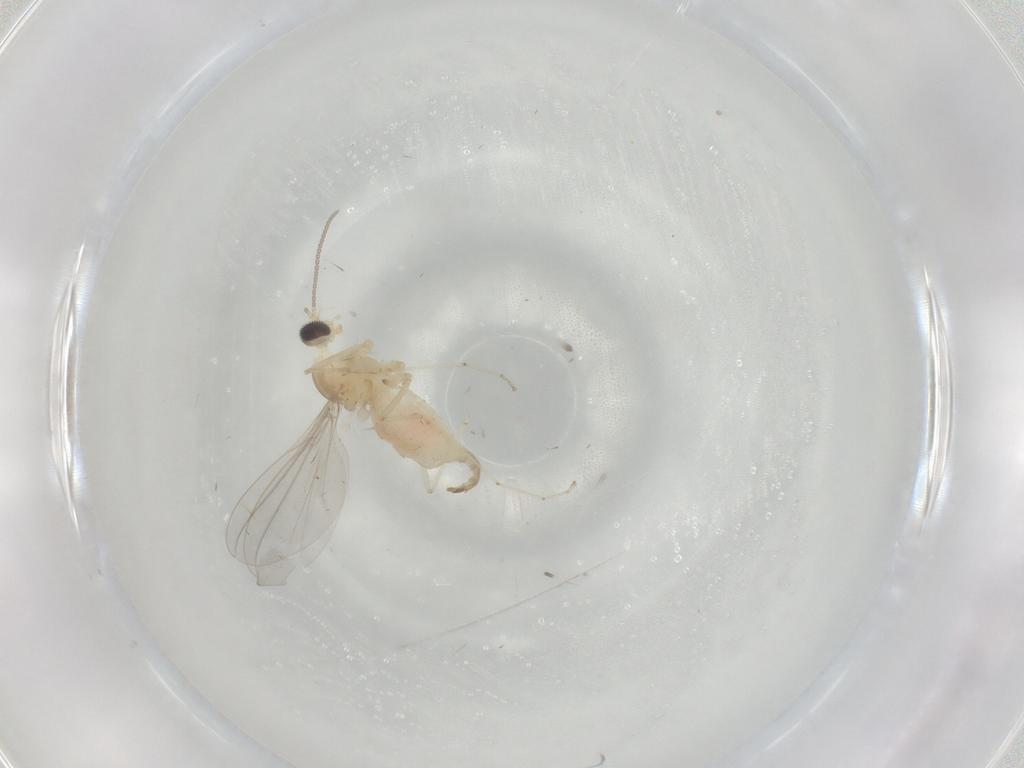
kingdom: Animalia
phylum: Arthropoda
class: Insecta
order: Diptera
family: Cecidomyiidae
